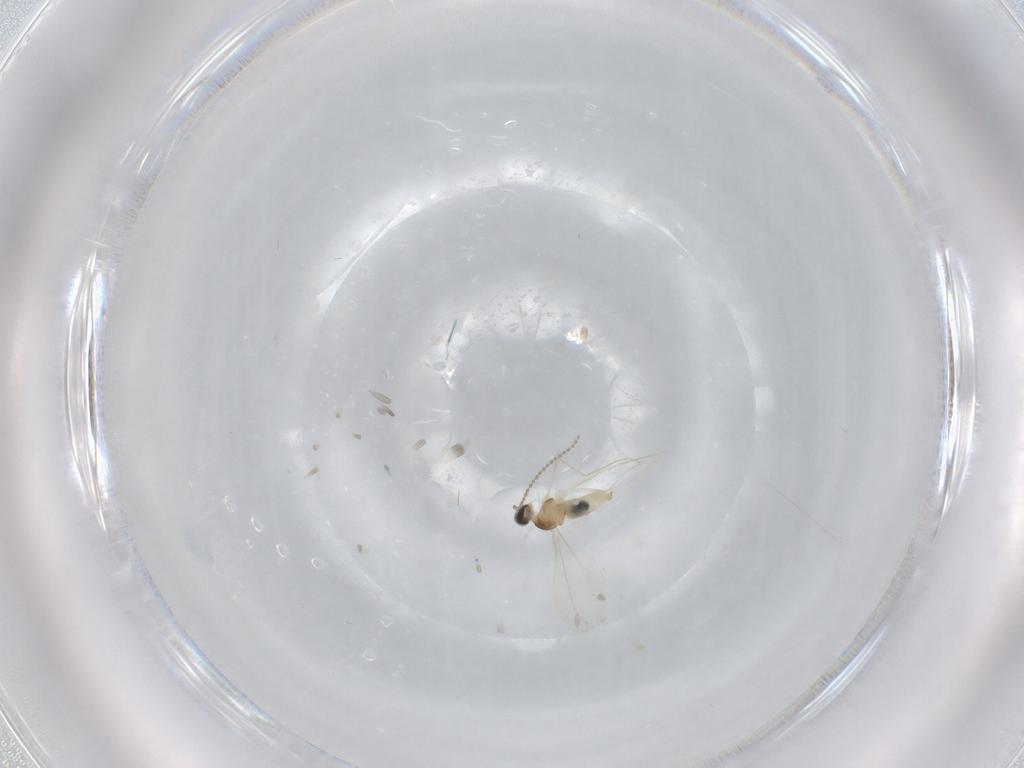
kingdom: Animalia
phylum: Arthropoda
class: Insecta
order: Diptera
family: Cecidomyiidae
